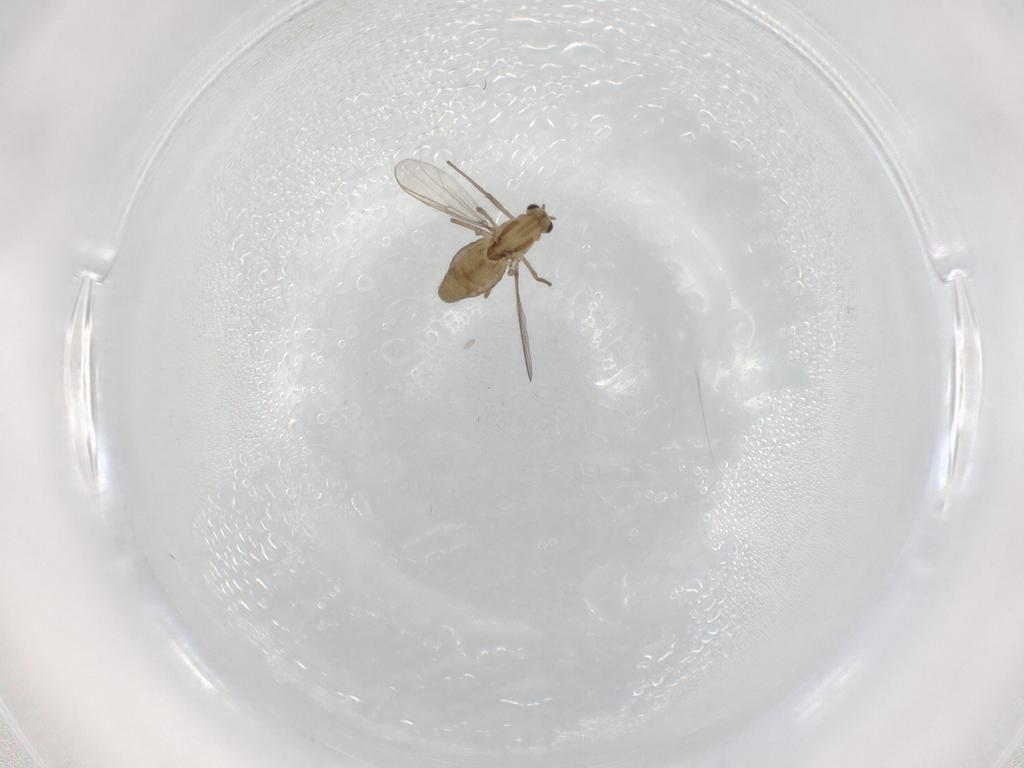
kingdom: Animalia
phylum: Arthropoda
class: Insecta
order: Diptera
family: Chironomidae
